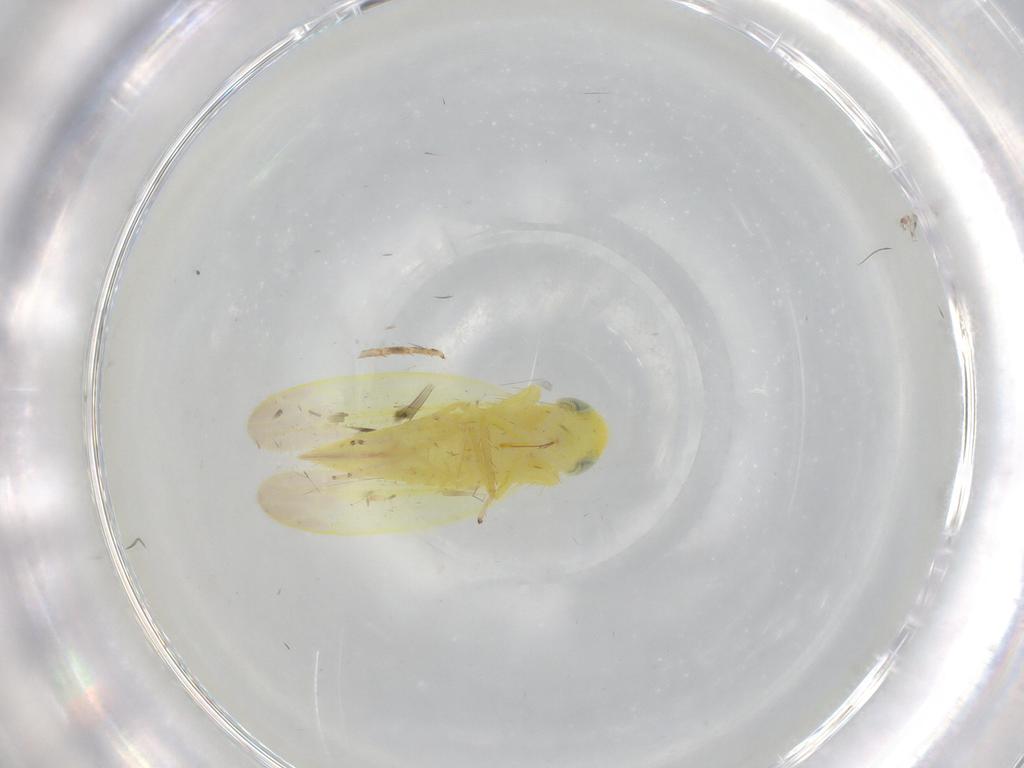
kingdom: Animalia
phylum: Arthropoda
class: Insecta
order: Hemiptera
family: Cicadellidae
